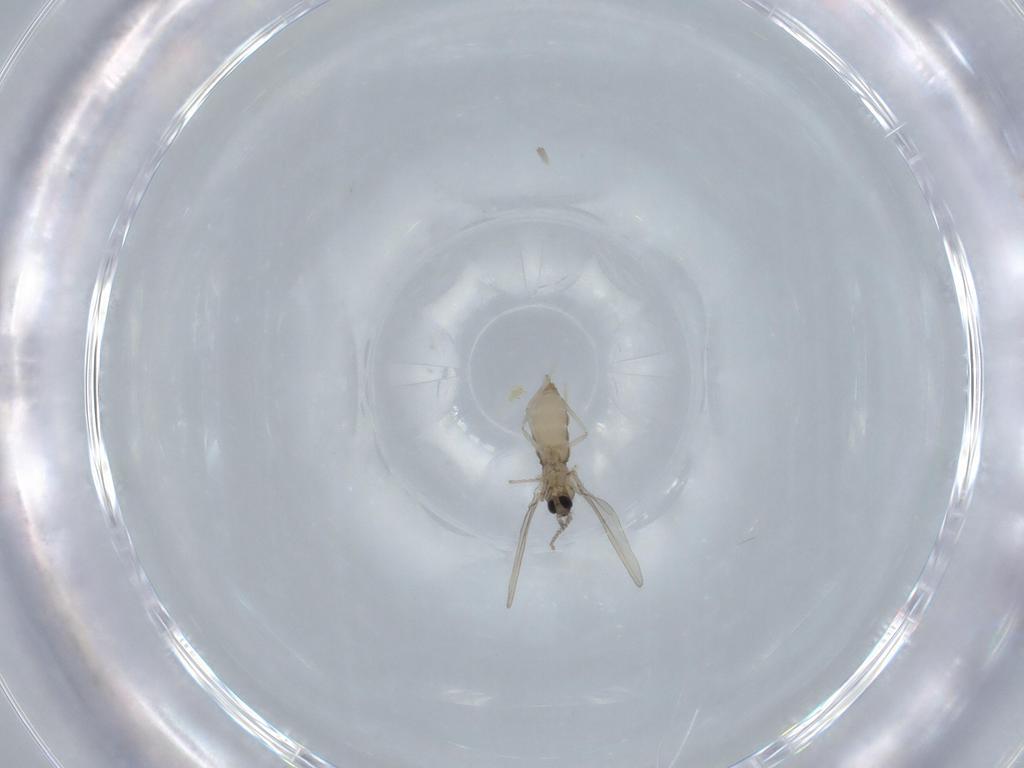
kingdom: Animalia
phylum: Arthropoda
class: Insecta
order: Diptera
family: Cecidomyiidae
